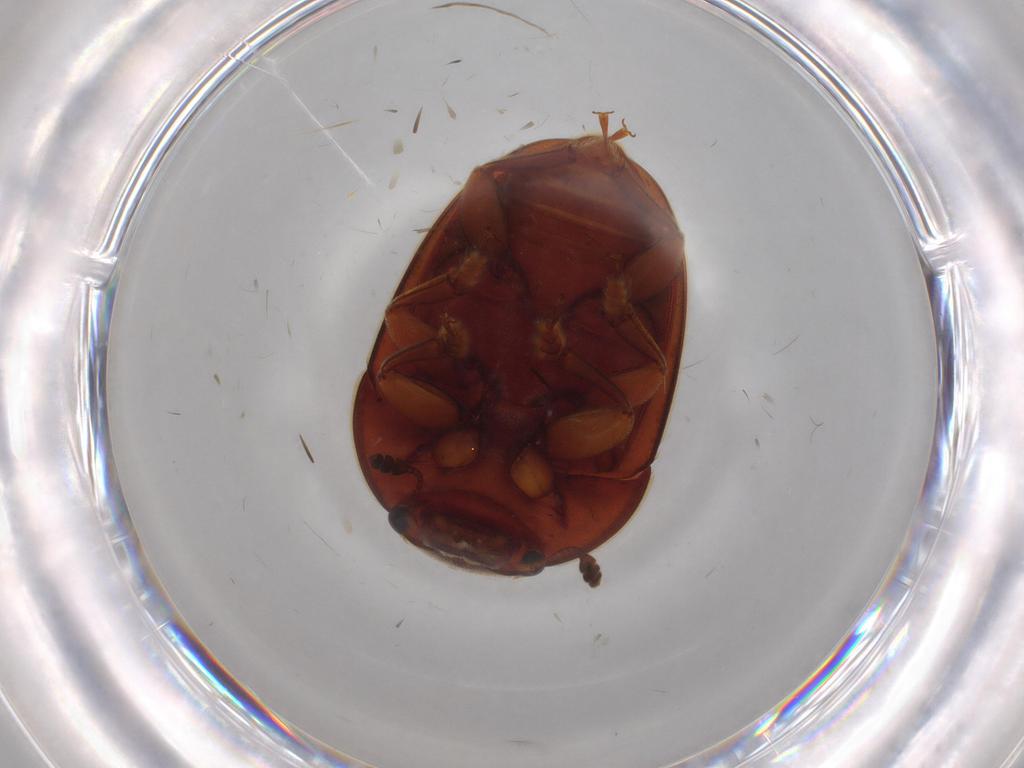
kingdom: Animalia
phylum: Arthropoda
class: Insecta
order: Coleoptera
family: Nitidulidae
